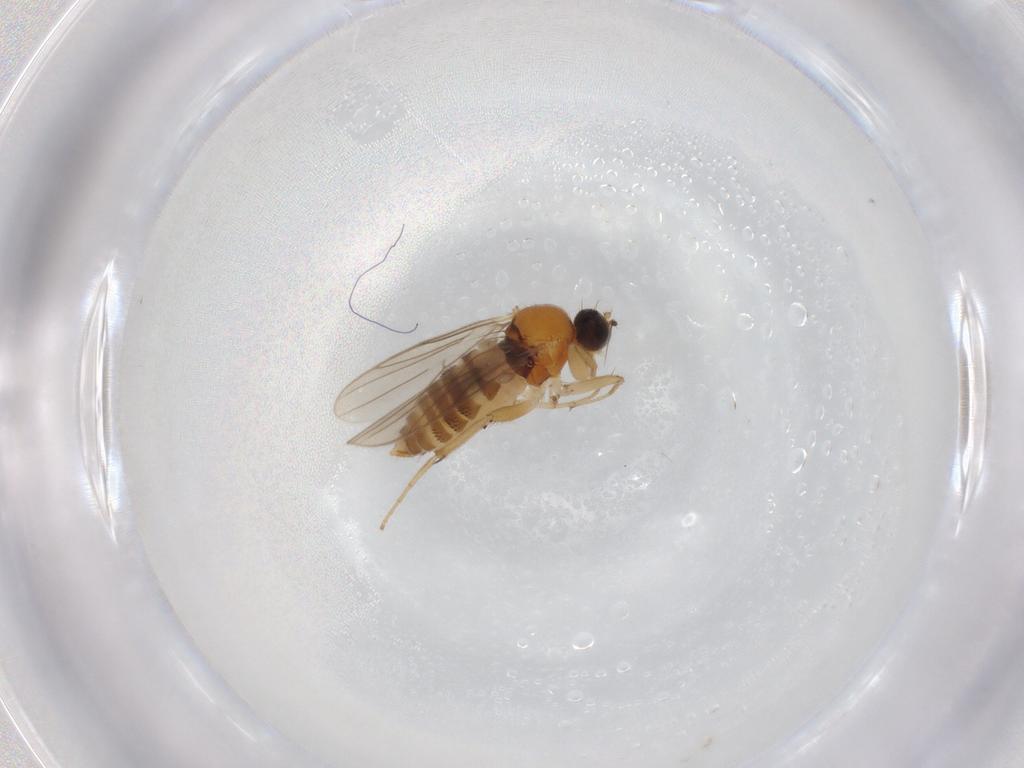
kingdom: Animalia
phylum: Arthropoda
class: Insecta
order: Diptera
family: Hybotidae
